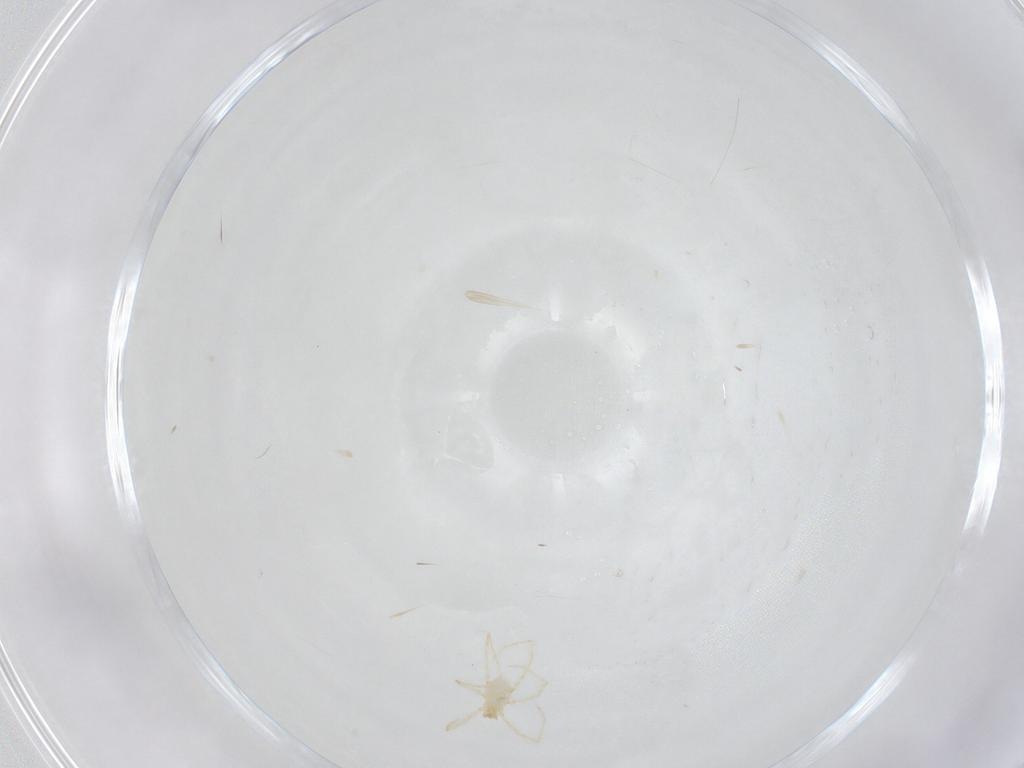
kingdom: Animalia
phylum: Arthropoda
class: Arachnida
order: Trombidiformes
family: Erythraeidae
